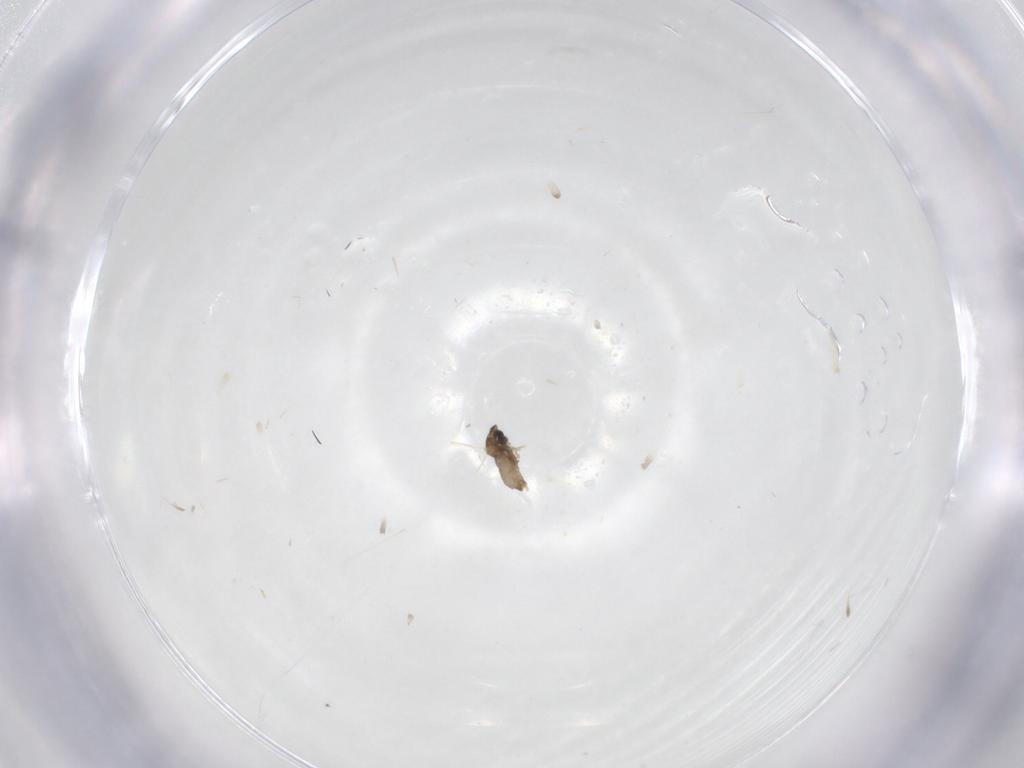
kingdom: Animalia
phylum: Arthropoda
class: Insecta
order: Diptera
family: Cecidomyiidae
